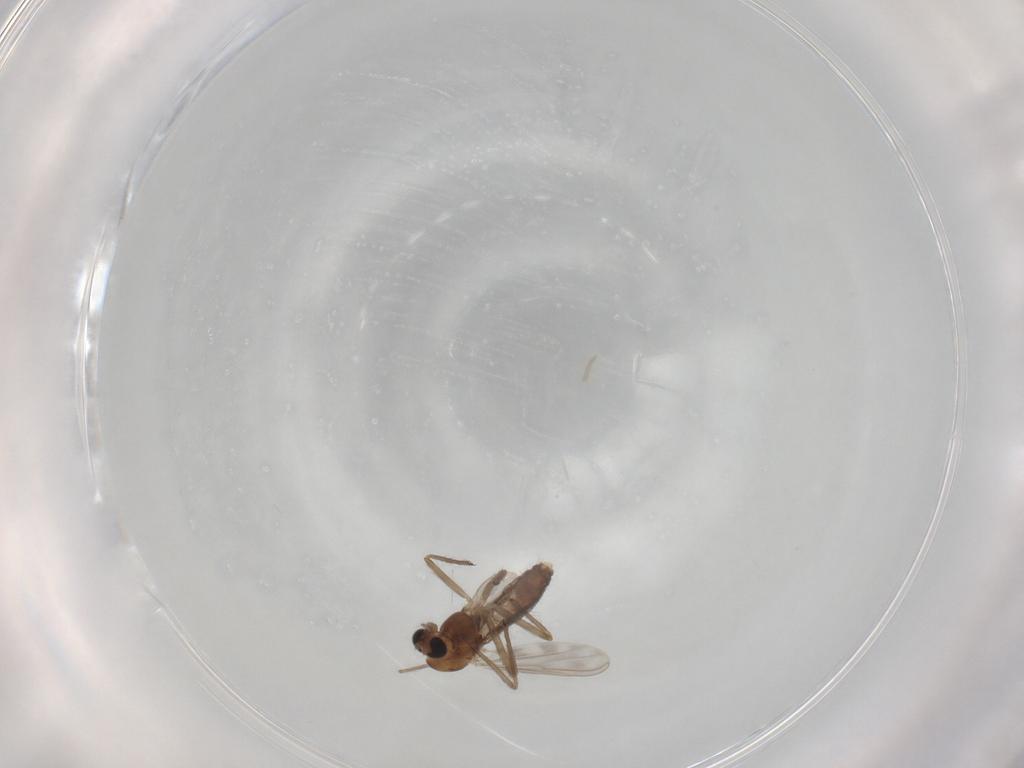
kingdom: Animalia
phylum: Arthropoda
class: Insecta
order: Diptera
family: Chironomidae
